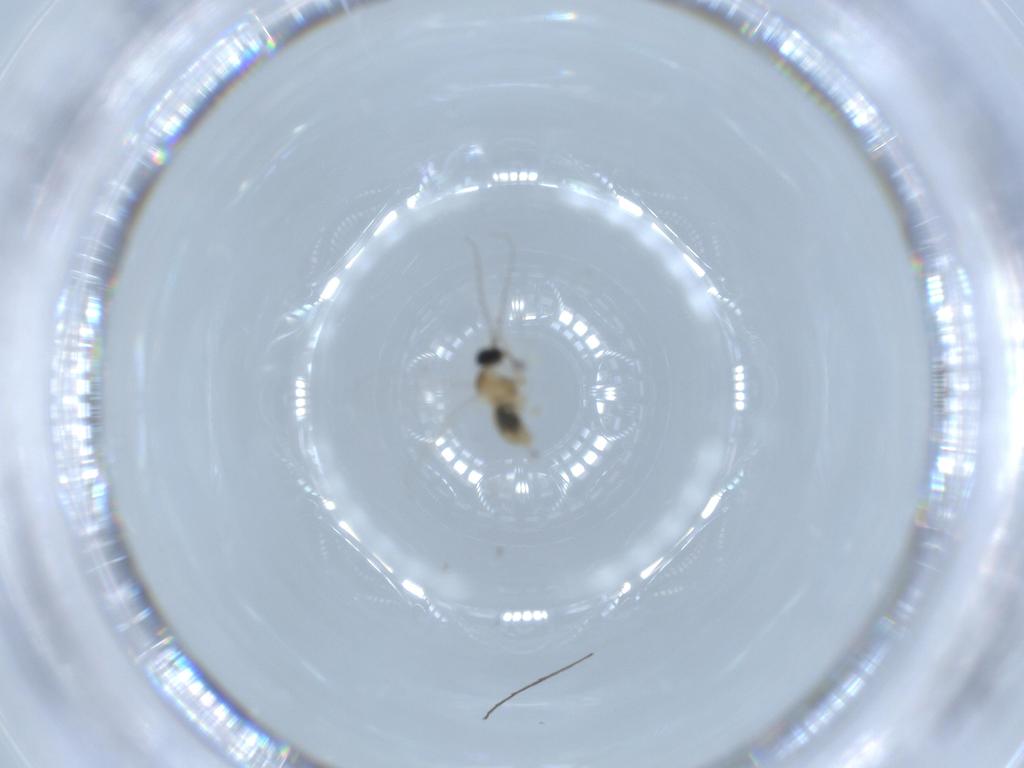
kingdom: Animalia
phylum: Arthropoda
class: Insecta
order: Diptera
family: Cecidomyiidae
